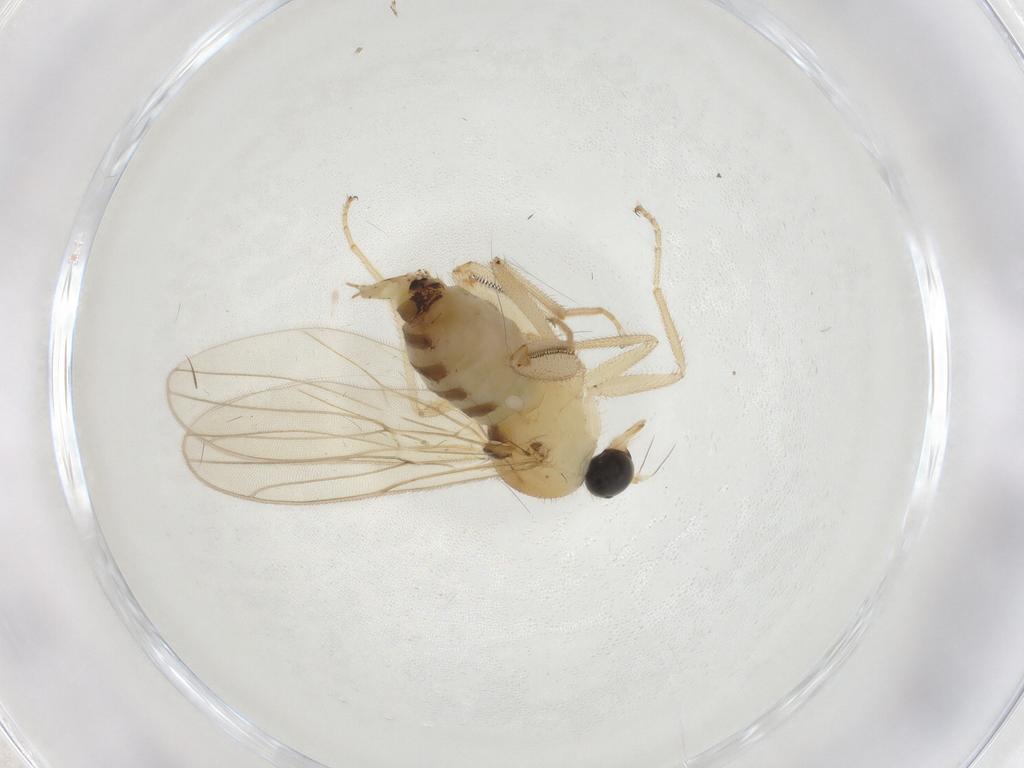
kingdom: Animalia
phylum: Arthropoda
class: Insecta
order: Diptera
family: Hybotidae
